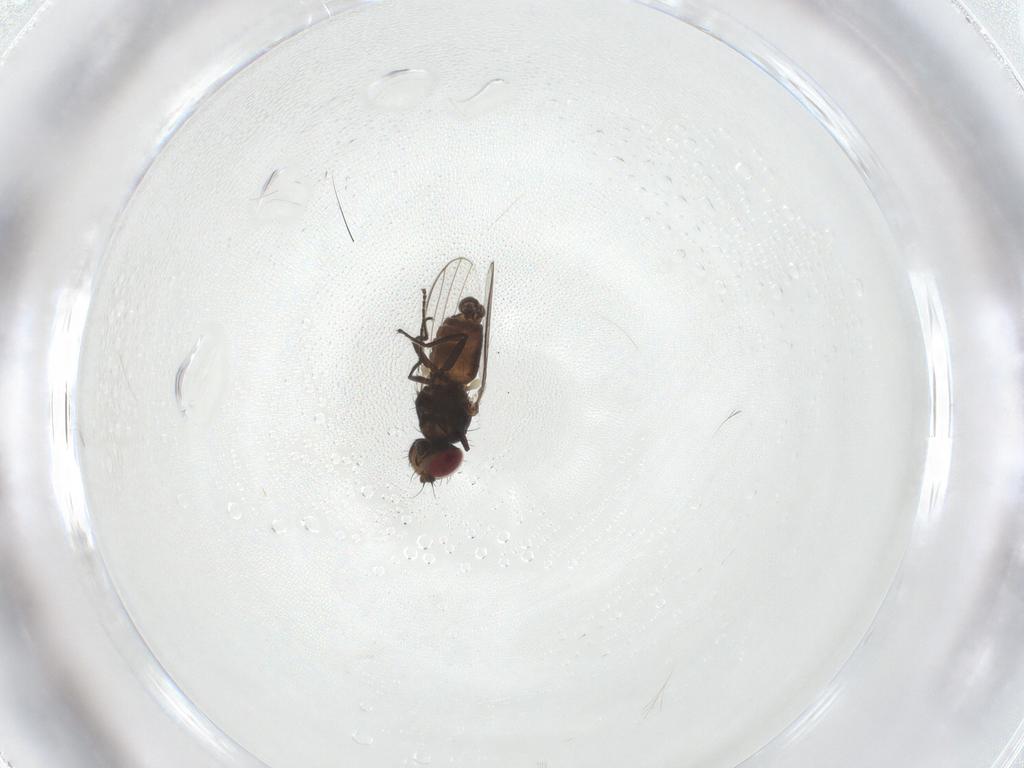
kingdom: Animalia
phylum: Arthropoda
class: Insecta
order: Diptera
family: Carnidae
